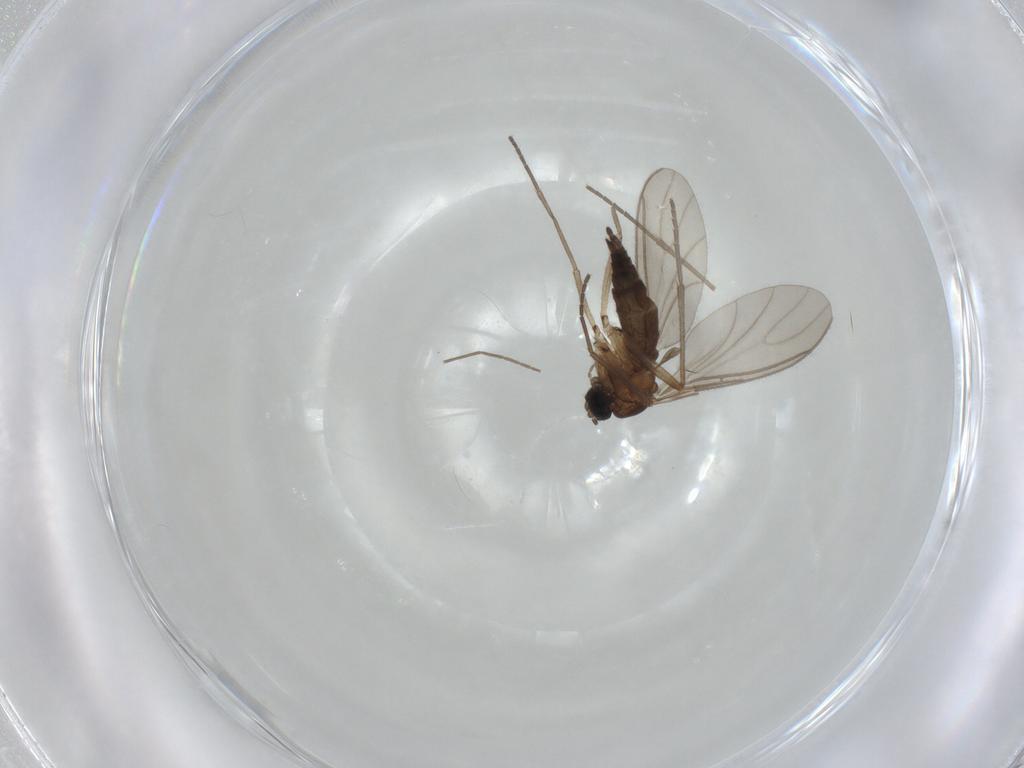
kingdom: Animalia
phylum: Arthropoda
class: Insecta
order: Diptera
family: Sciaridae
